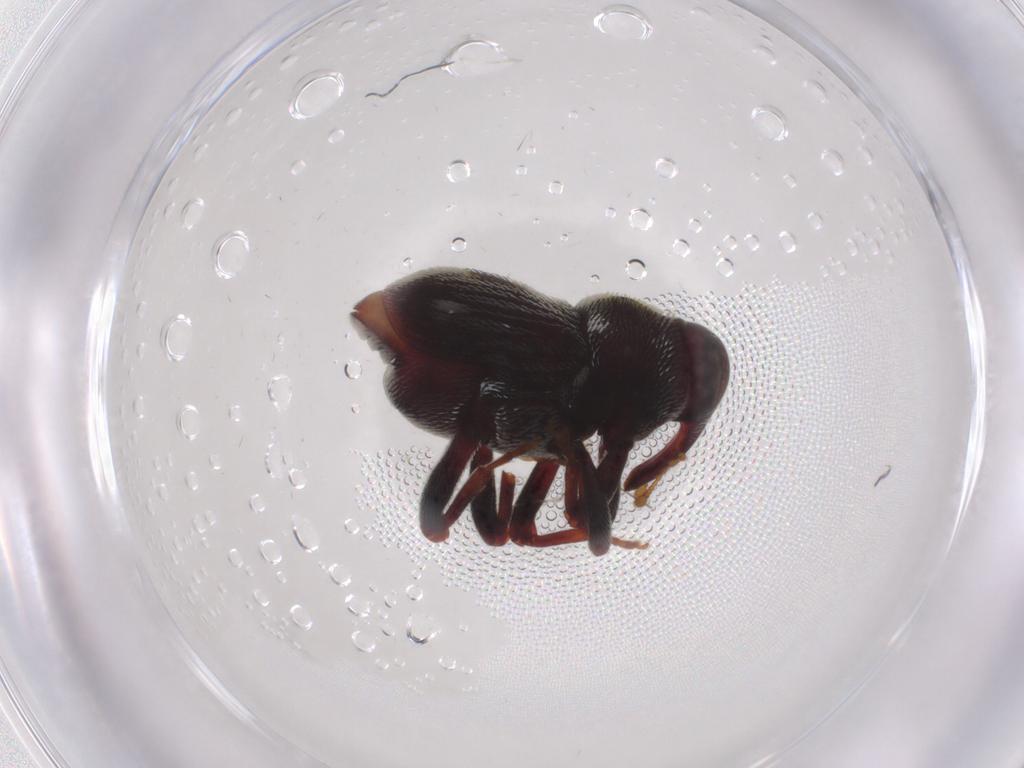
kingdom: Animalia
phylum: Arthropoda
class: Insecta
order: Coleoptera
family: Curculionidae
